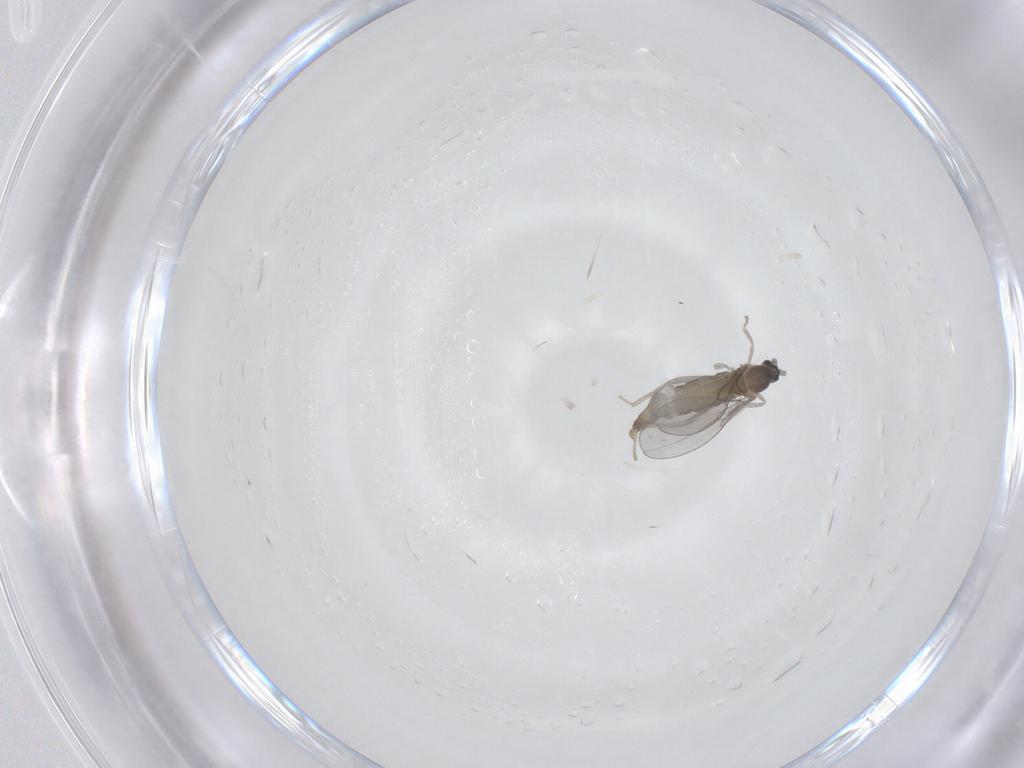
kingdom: Animalia
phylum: Arthropoda
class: Insecta
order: Diptera
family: Cecidomyiidae
